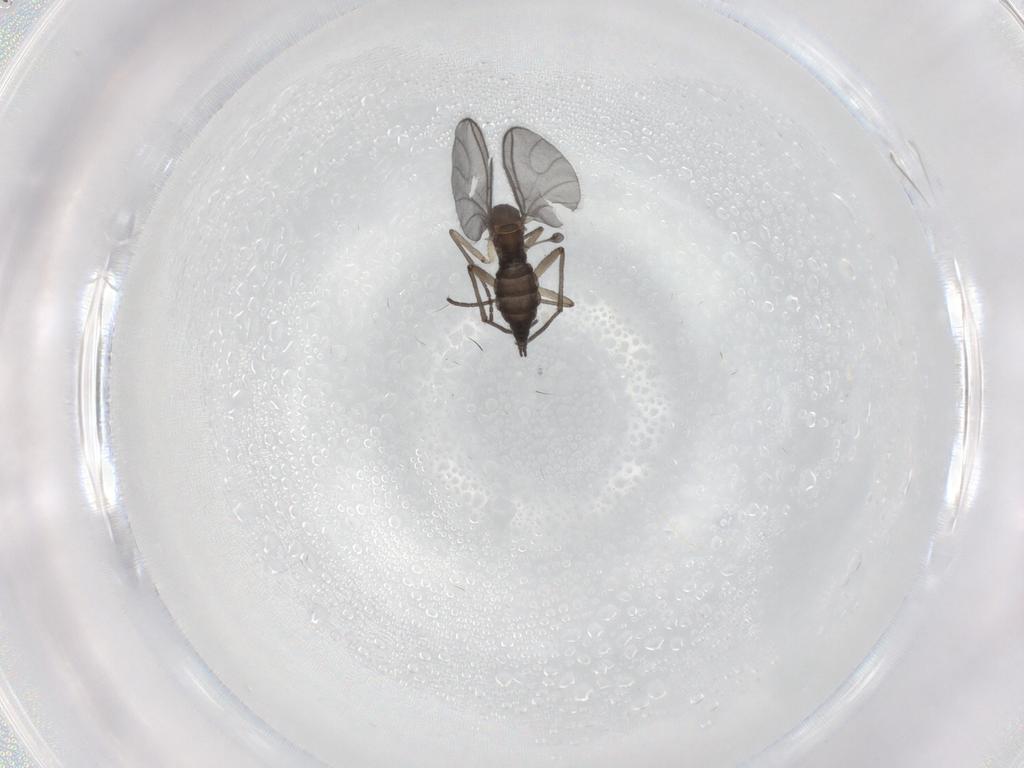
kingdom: Animalia
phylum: Arthropoda
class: Insecta
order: Diptera
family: Sciaridae
